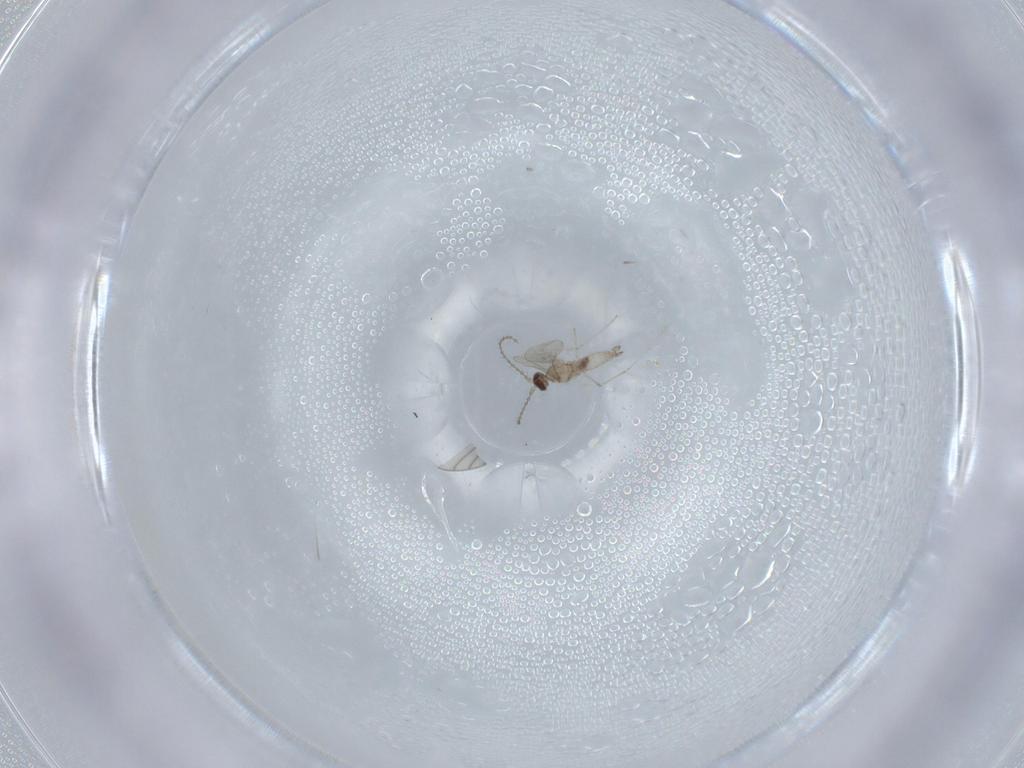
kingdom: Animalia
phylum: Arthropoda
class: Insecta
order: Diptera
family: Cecidomyiidae
